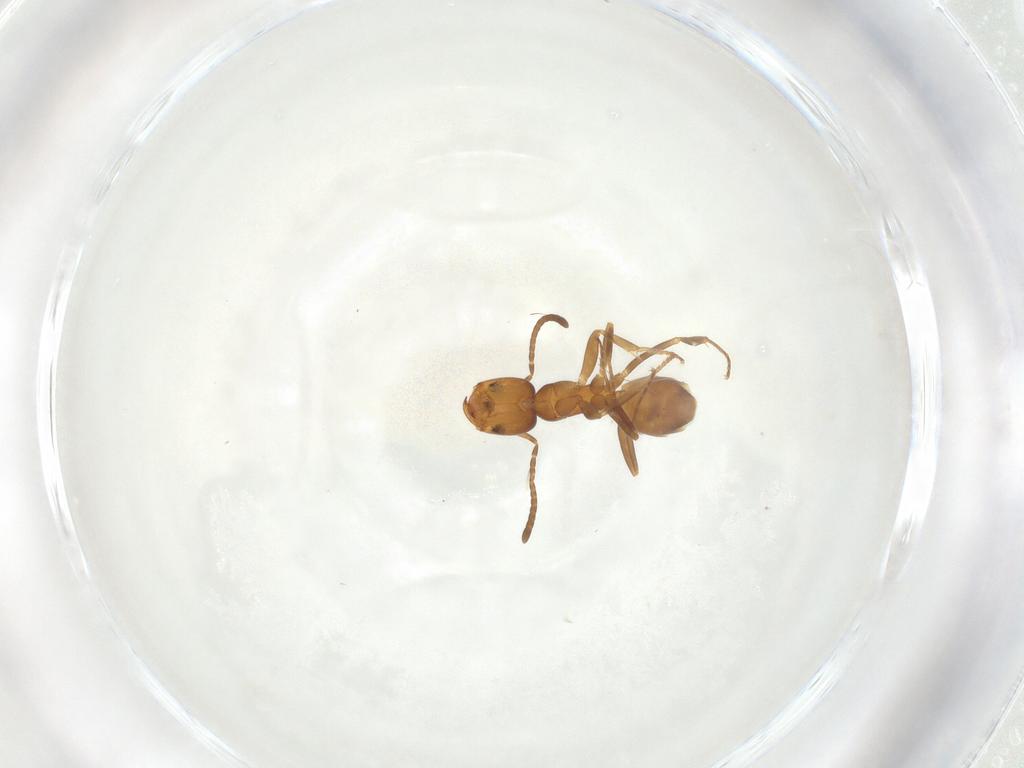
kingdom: Animalia
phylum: Arthropoda
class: Insecta
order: Hymenoptera
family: Formicidae
